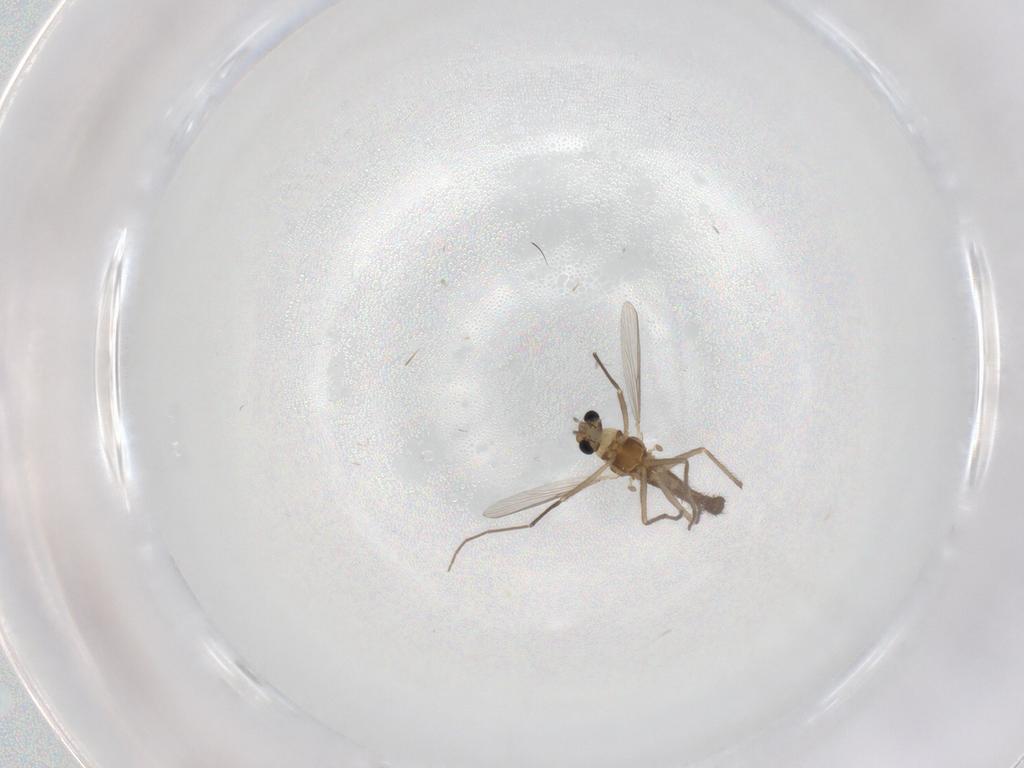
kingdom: Animalia
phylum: Arthropoda
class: Insecta
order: Diptera
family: Chironomidae
